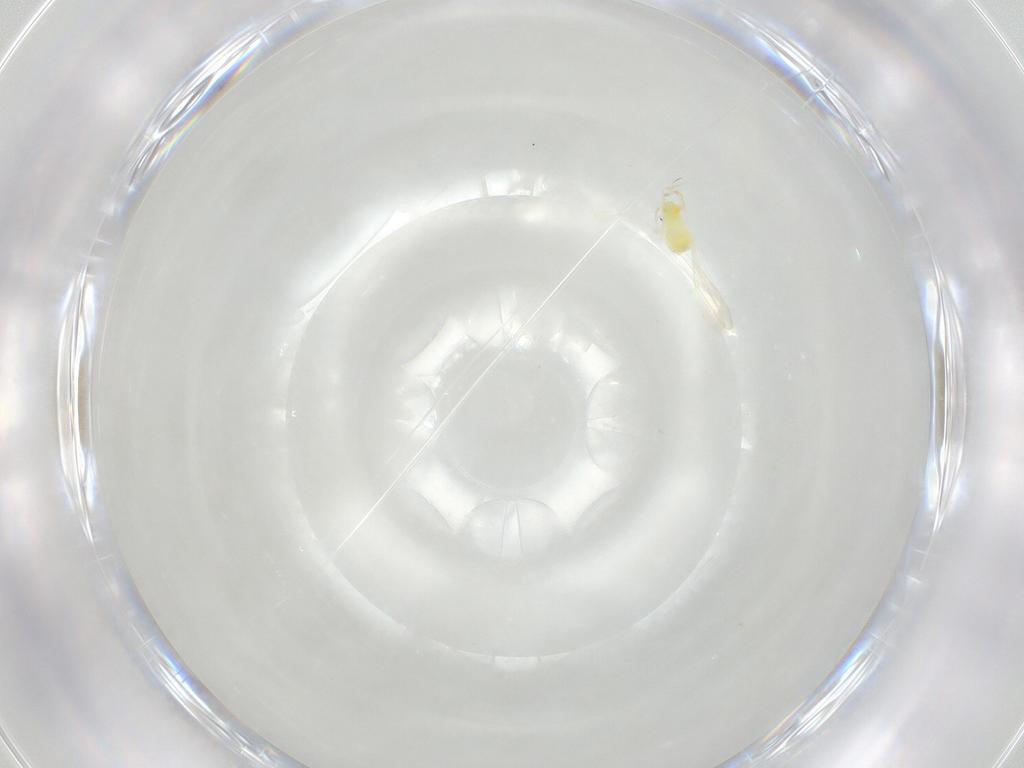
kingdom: Animalia
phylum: Arthropoda
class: Insecta
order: Hemiptera
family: Aleyrodidae
